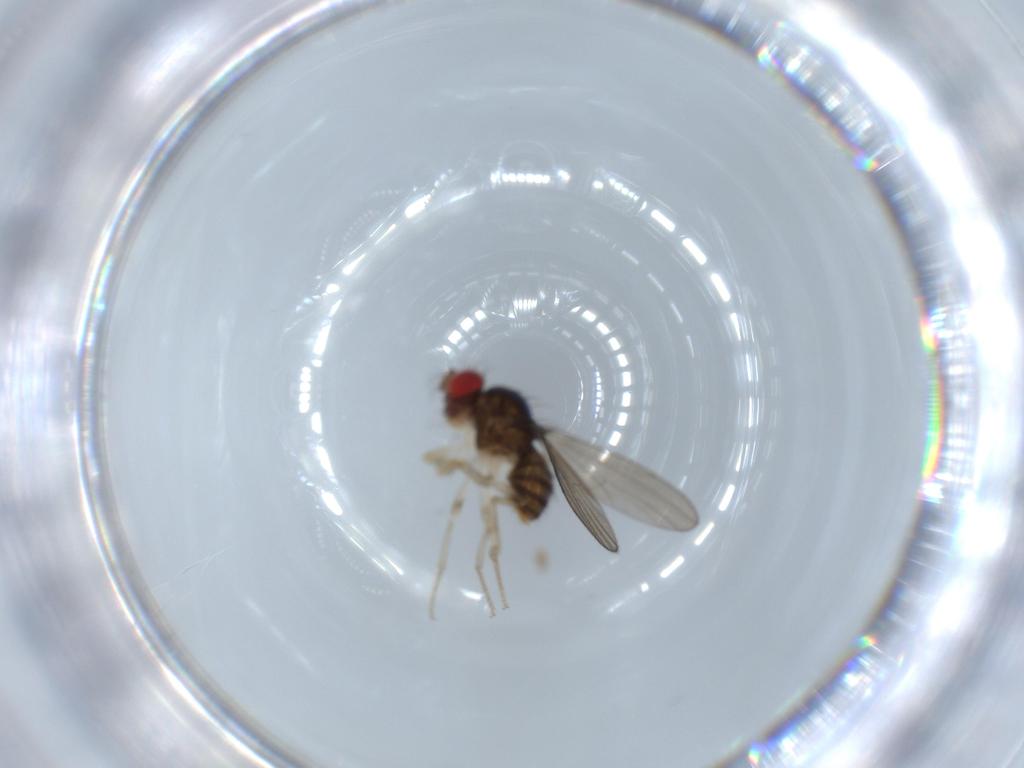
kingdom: Animalia
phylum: Arthropoda
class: Insecta
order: Diptera
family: Drosophilidae
